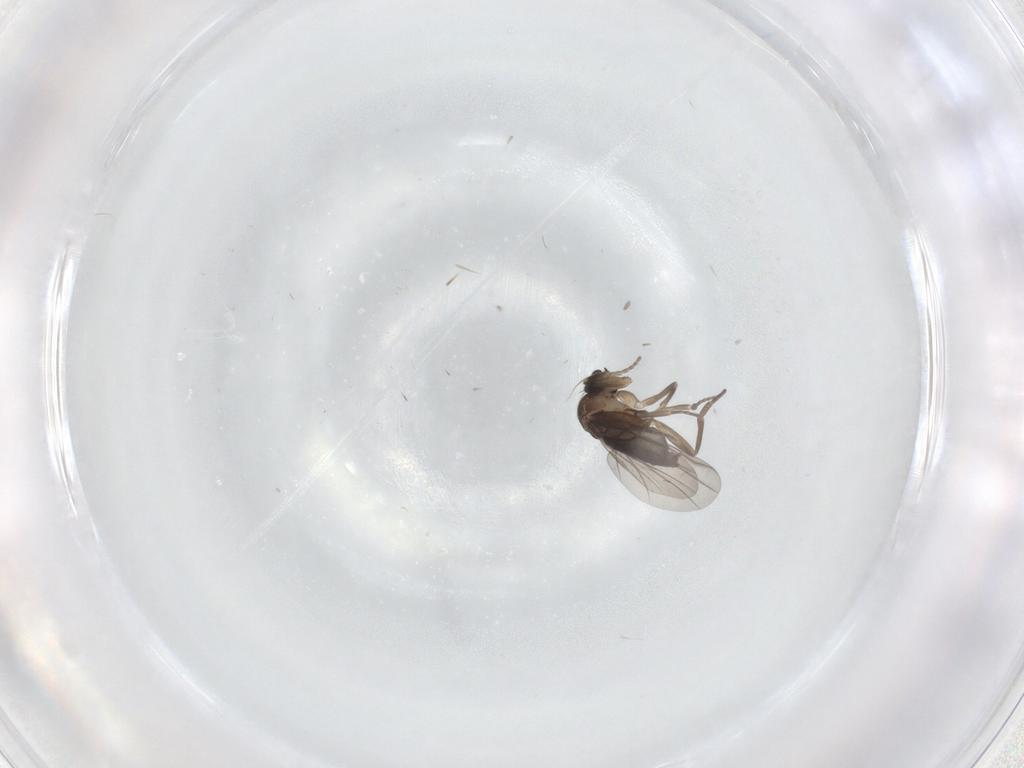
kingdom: Animalia
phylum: Arthropoda
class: Insecta
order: Diptera
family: Chironomidae
